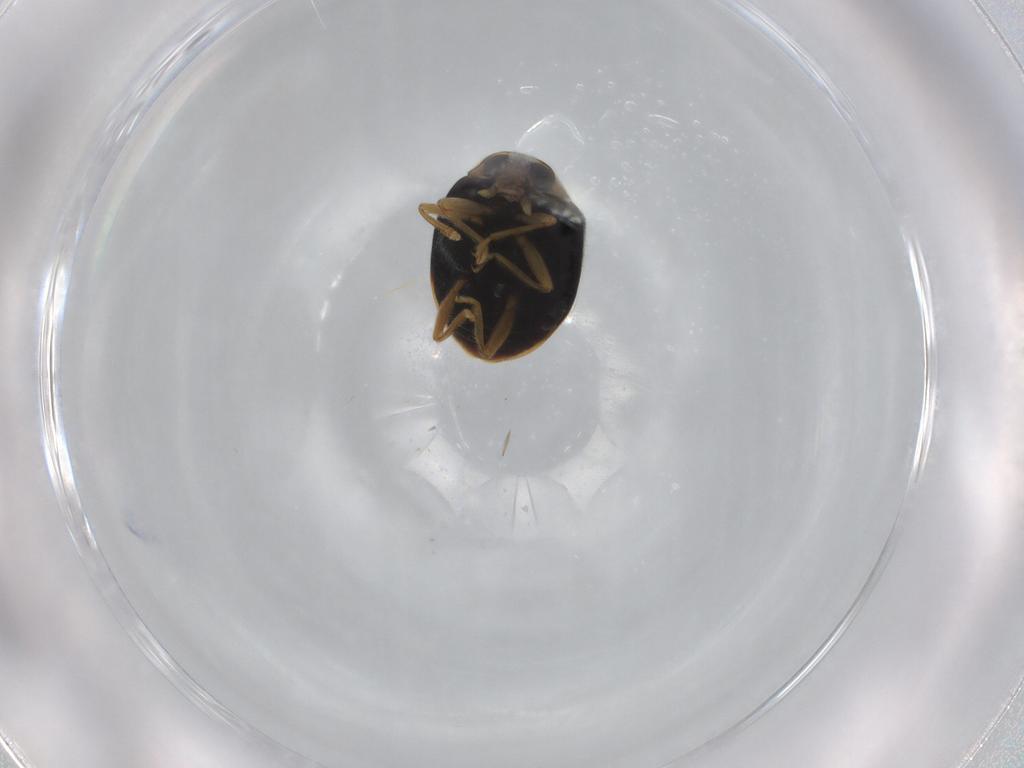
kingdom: Animalia
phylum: Arthropoda
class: Insecta
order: Coleoptera
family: Coccinellidae
